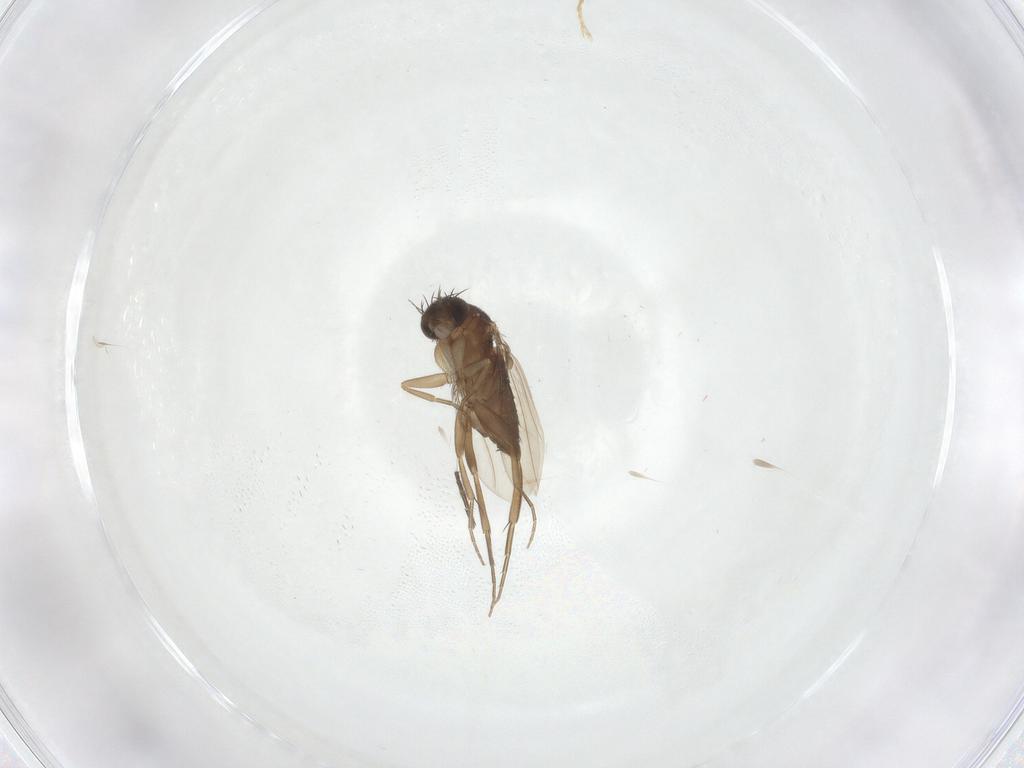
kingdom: Animalia
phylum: Arthropoda
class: Insecta
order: Diptera
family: Phoridae
